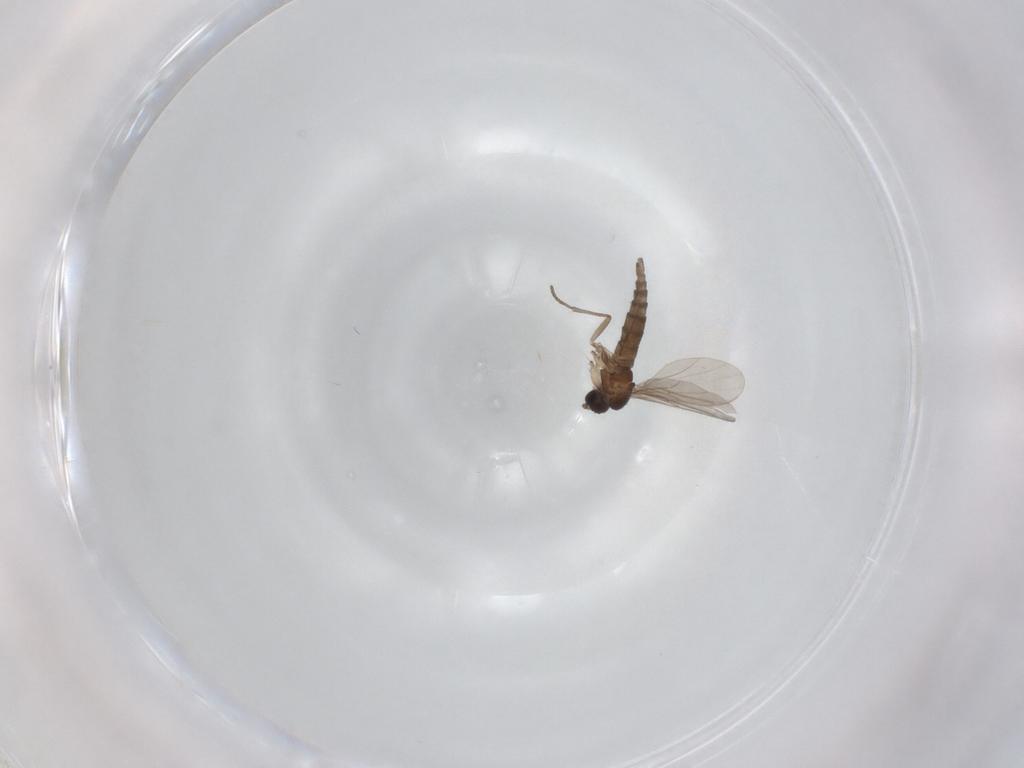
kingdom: Animalia
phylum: Arthropoda
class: Insecta
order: Diptera
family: Sciaridae
